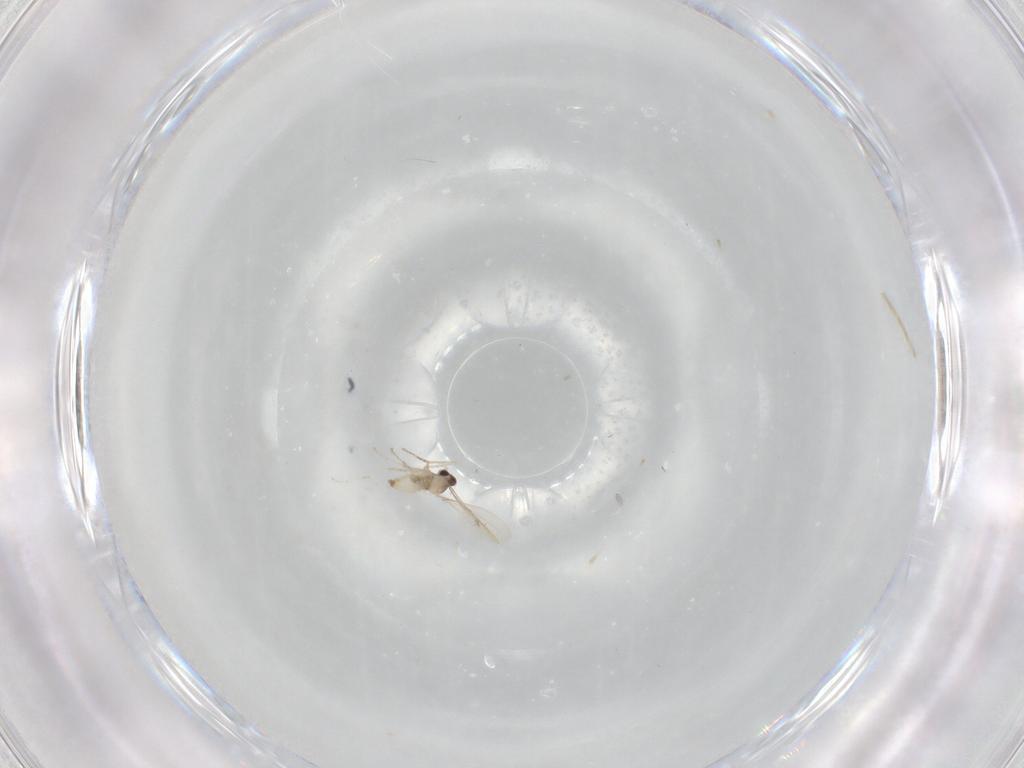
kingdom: Animalia
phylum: Arthropoda
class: Insecta
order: Diptera
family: Cecidomyiidae
